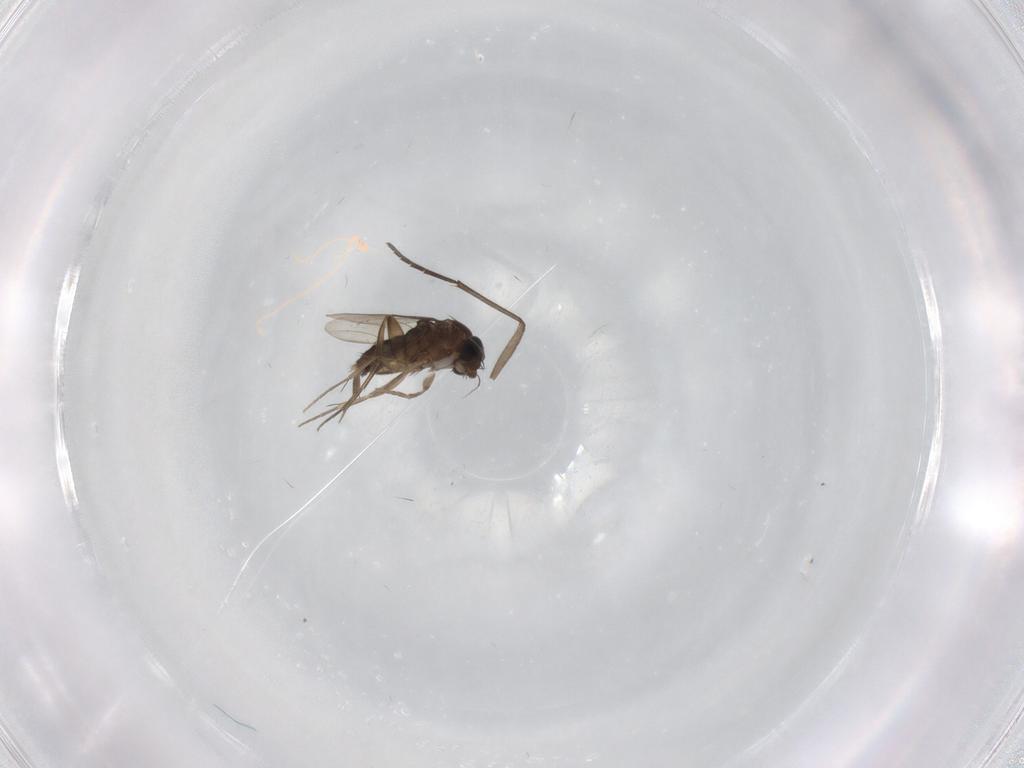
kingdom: Animalia
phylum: Arthropoda
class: Insecta
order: Diptera
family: Phoridae
